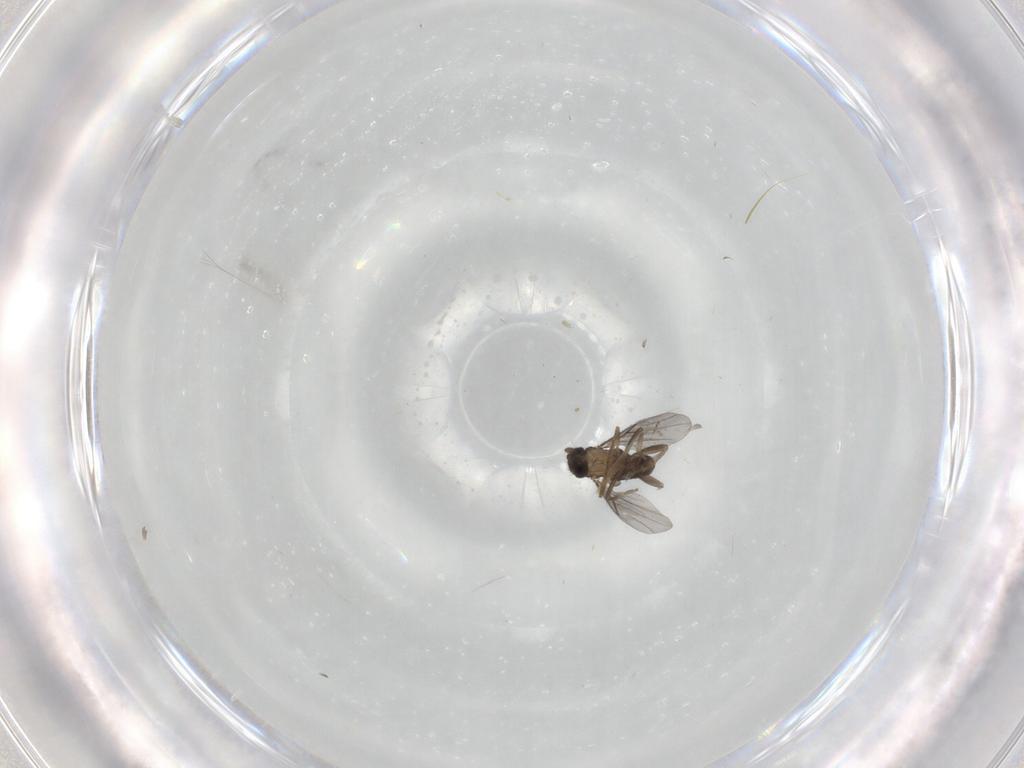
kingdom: Animalia
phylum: Arthropoda
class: Insecta
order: Diptera
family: Ceratopogonidae
